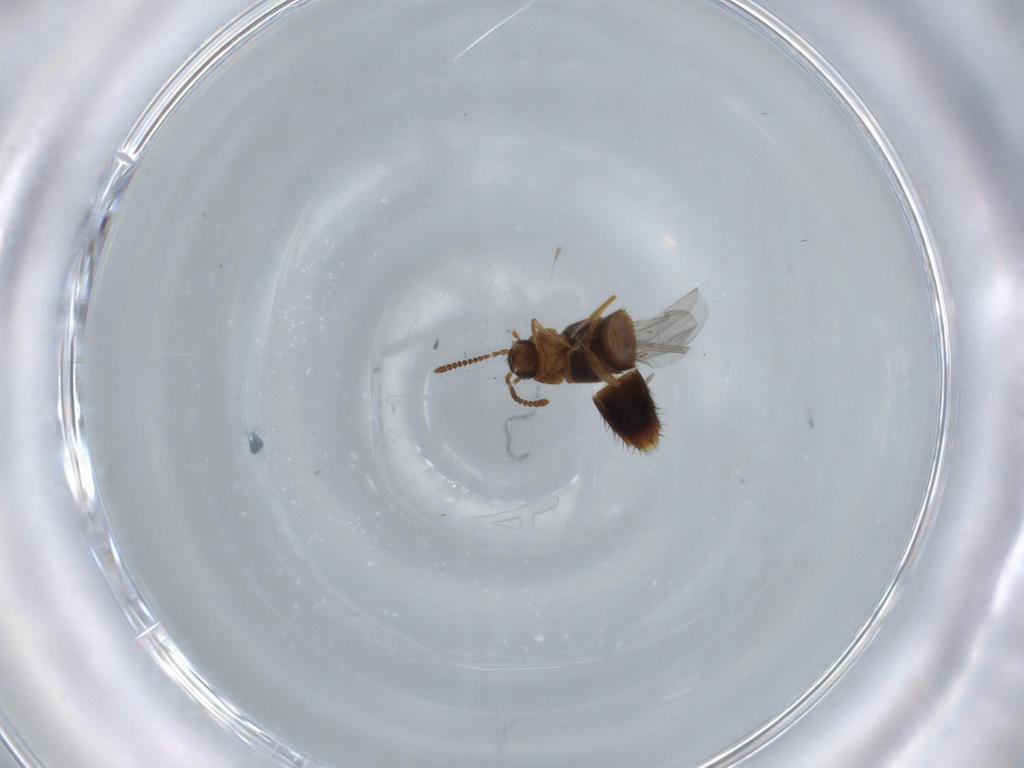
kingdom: Animalia
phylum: Arthropoda
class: Insecta
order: Coleoptera
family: Staphylinidae
